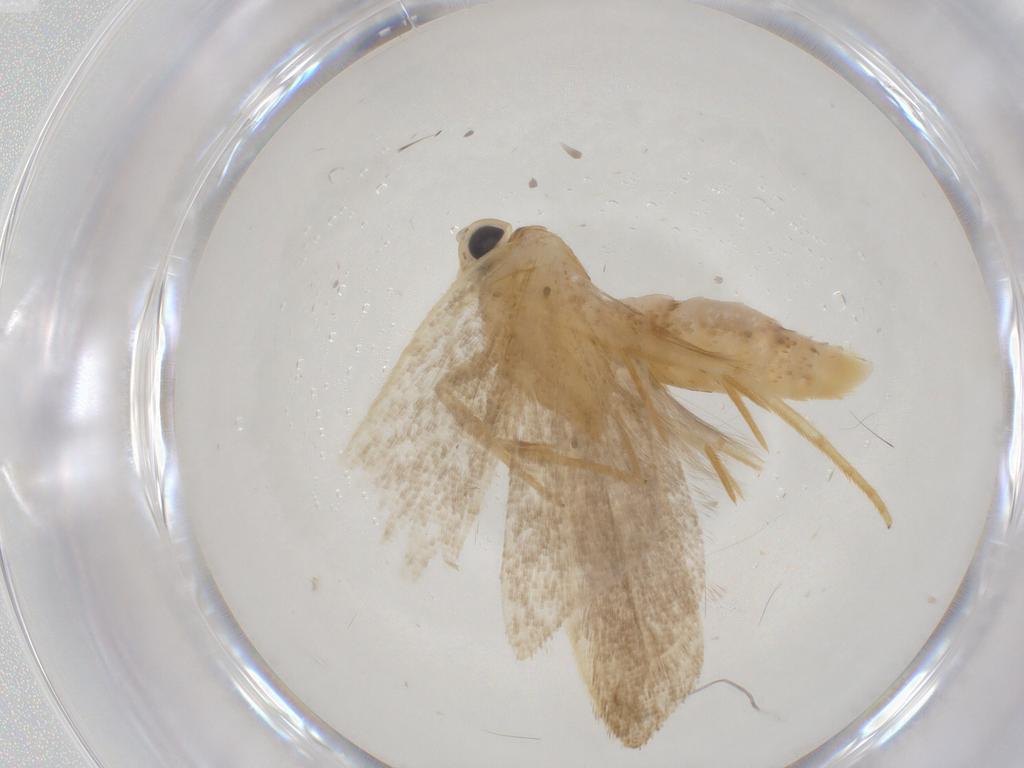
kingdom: Animalia
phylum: Arthropoda
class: Insecta
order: Lepidoptera
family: Gelechiidae
